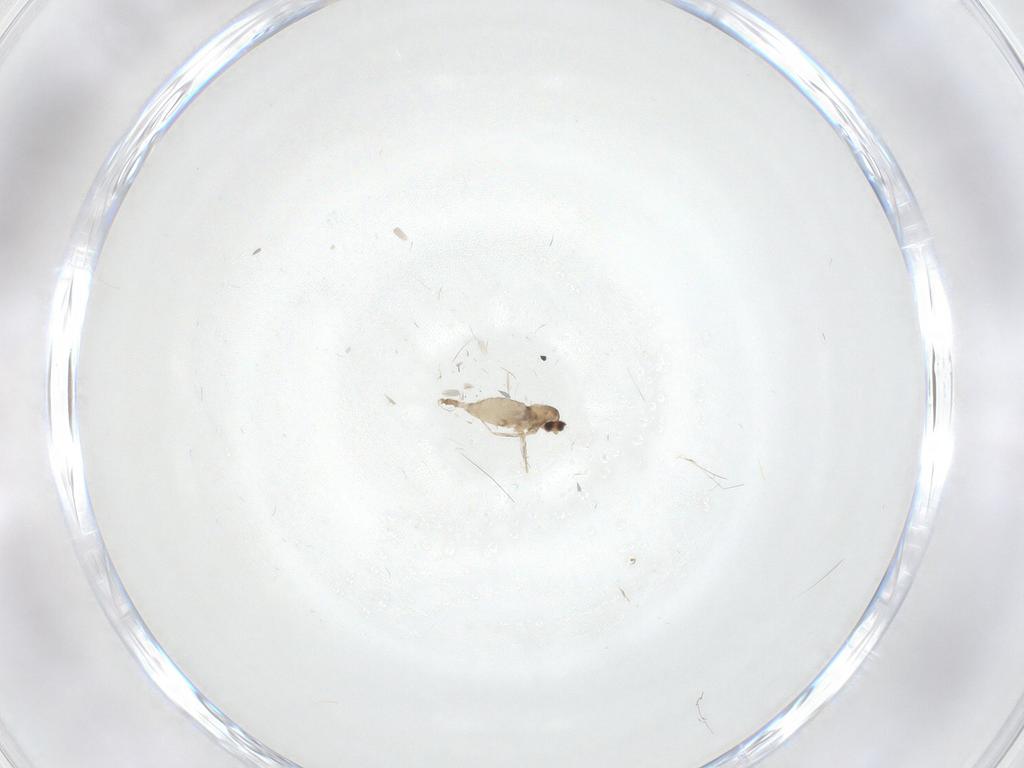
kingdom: Animalia
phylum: Arthropoda
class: Insecta
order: Diptera
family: Cecidomyiidae
